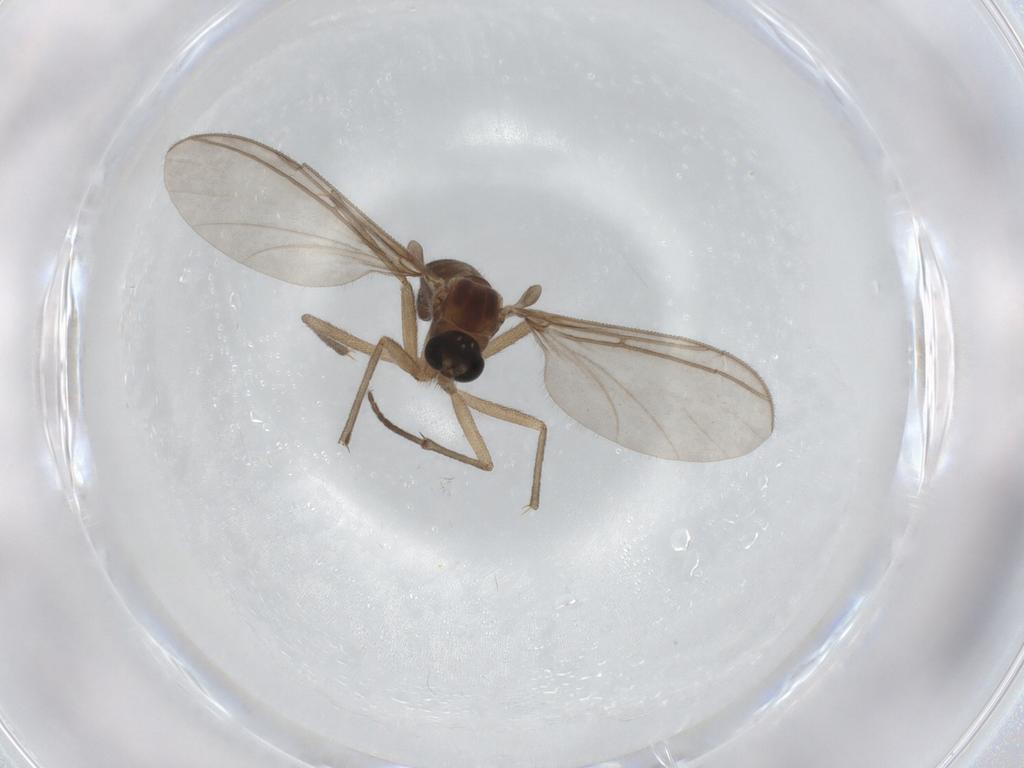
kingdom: Animalia
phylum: Arthropoda
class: Insecta
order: Diptera
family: Sciaridae
